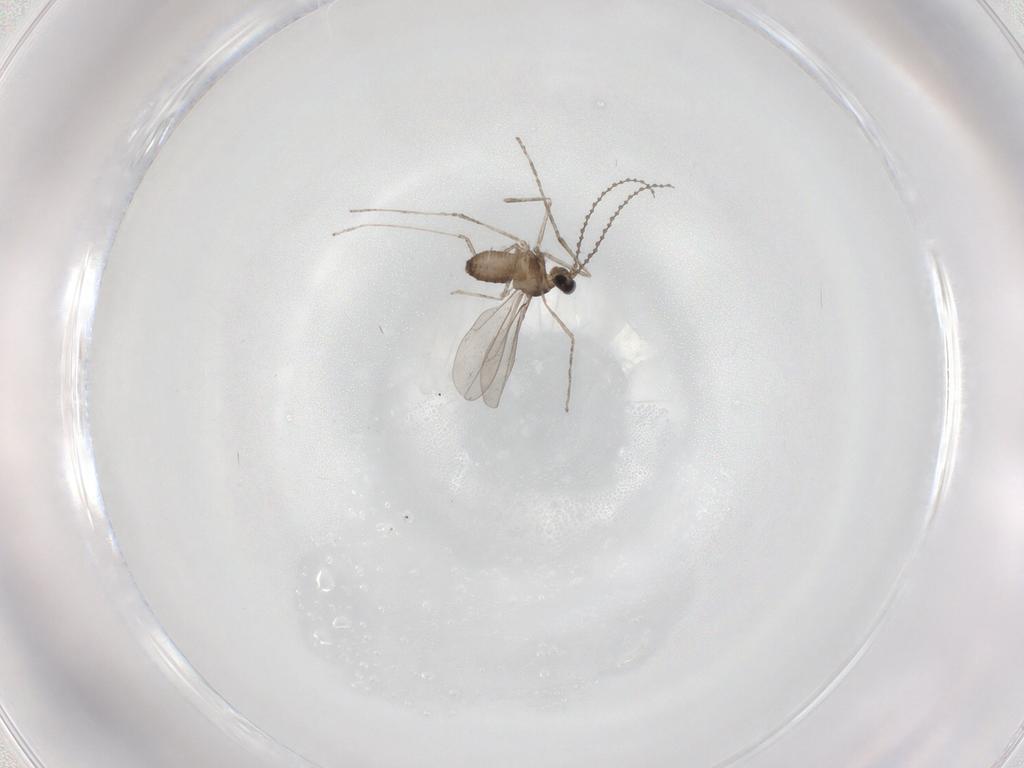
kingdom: Animalia
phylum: Arthropoda
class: Insecta
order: Diptera
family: Cecidomyiidae
